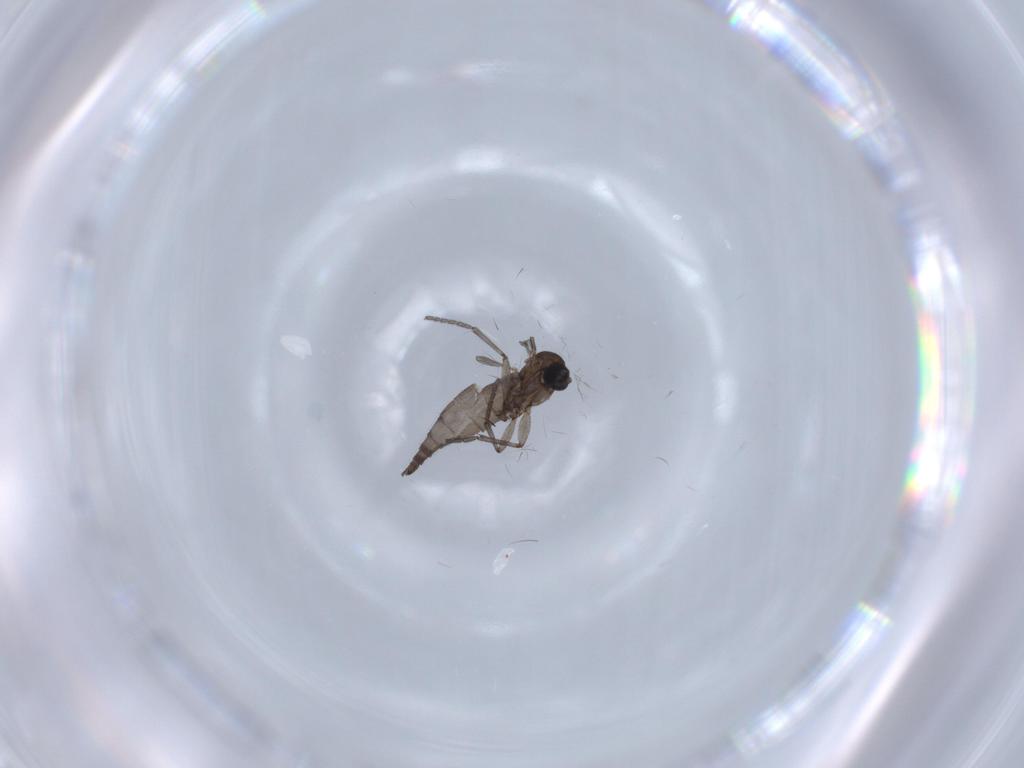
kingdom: Animalia
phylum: Arthropoda
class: Insecta
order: Diptera
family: Sciaridae
